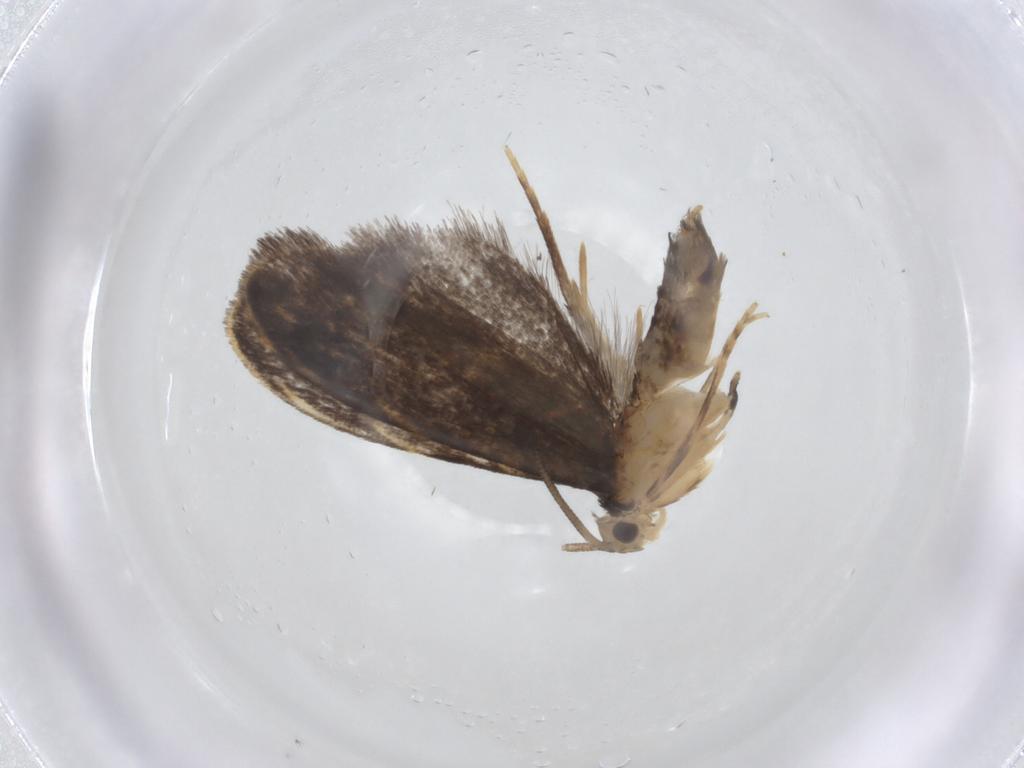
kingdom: Animalia
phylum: Arthropoda
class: Insecta
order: Lepidoptera
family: Dryadaulidae
